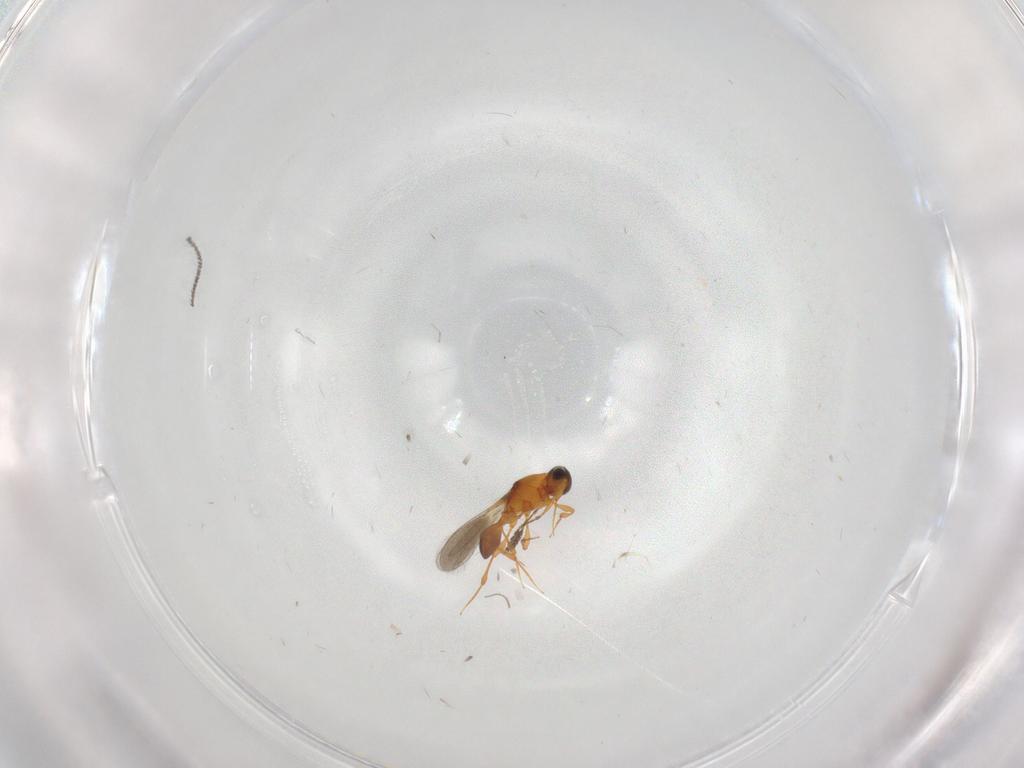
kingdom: Animalia
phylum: Arthropoda
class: Insecta
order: Hymenoptera
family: Platygastridae
